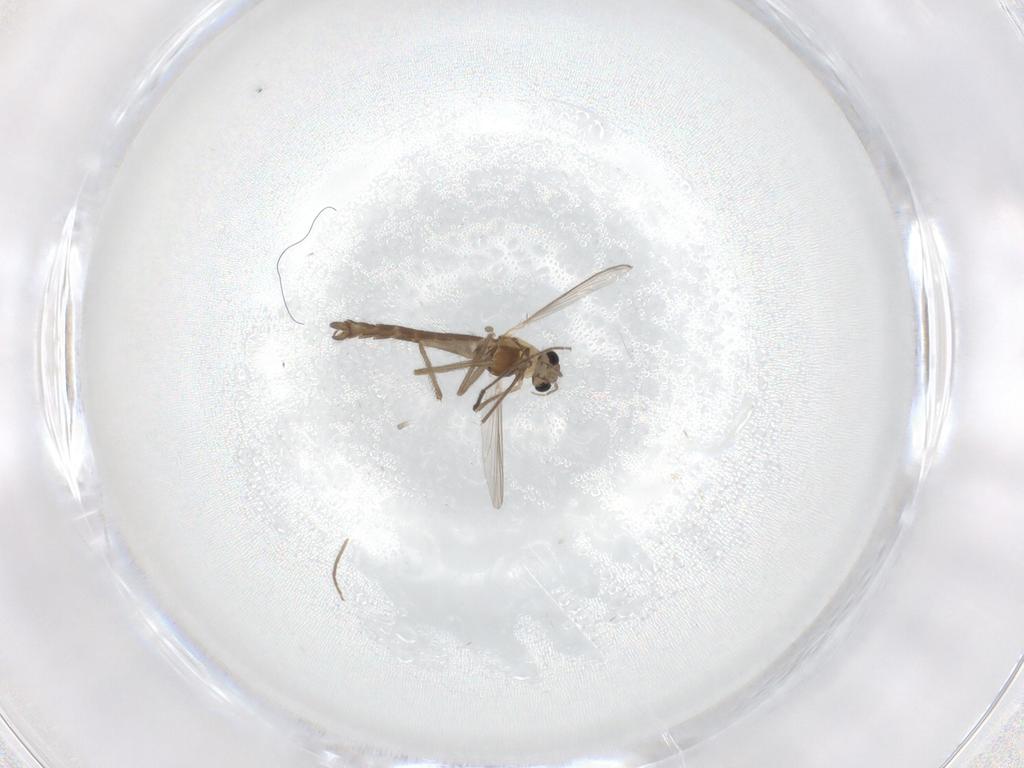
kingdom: Animalia
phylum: Arthropoda
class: Insecta
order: Diptera
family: Chironomidae
